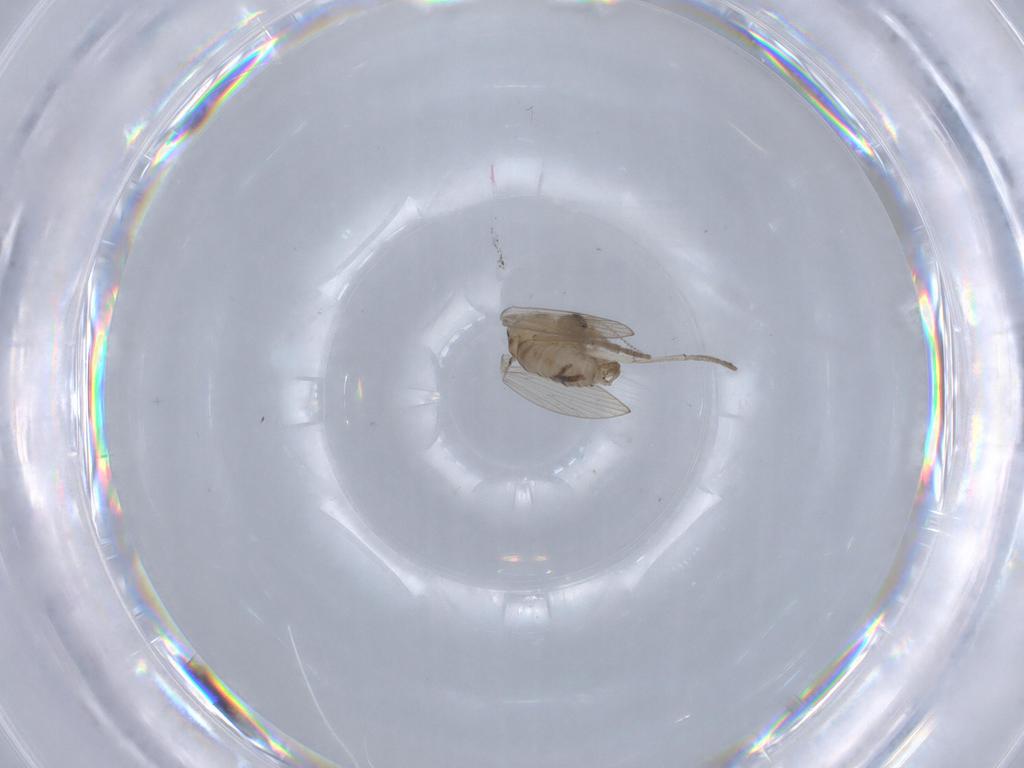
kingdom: Animalia
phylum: Arthropoda
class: Insecta
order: Diptera
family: Psychodidae
